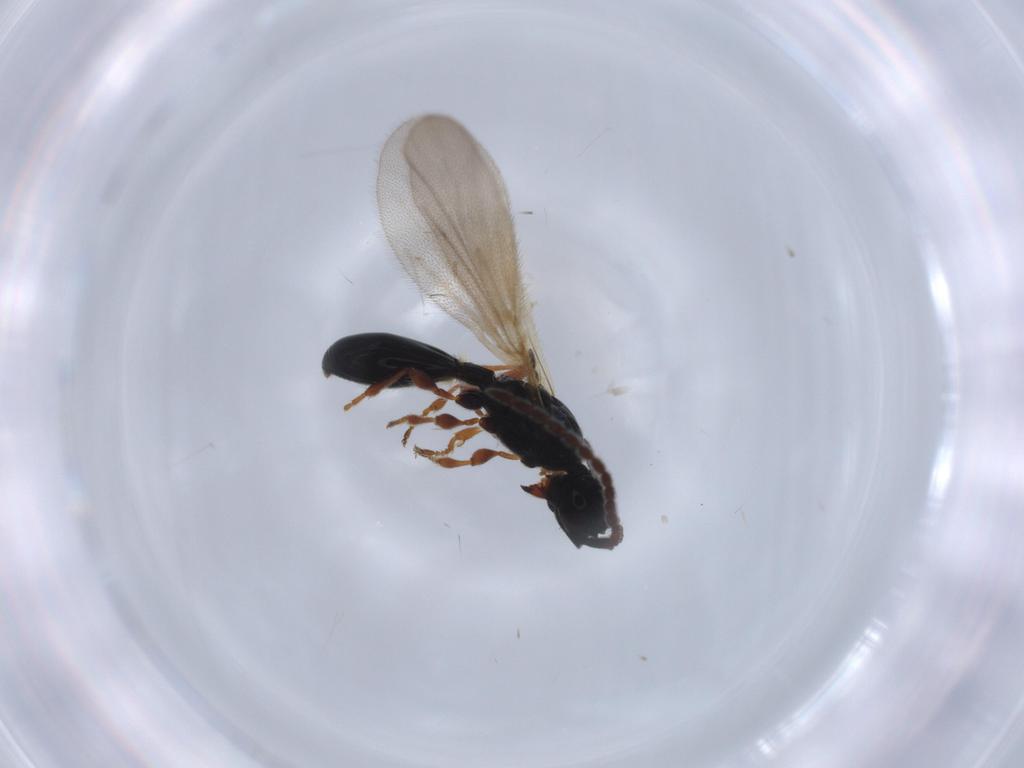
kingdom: Animalia
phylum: Arthropoda
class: Insecta
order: Hymenoptera
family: Diapriidae
